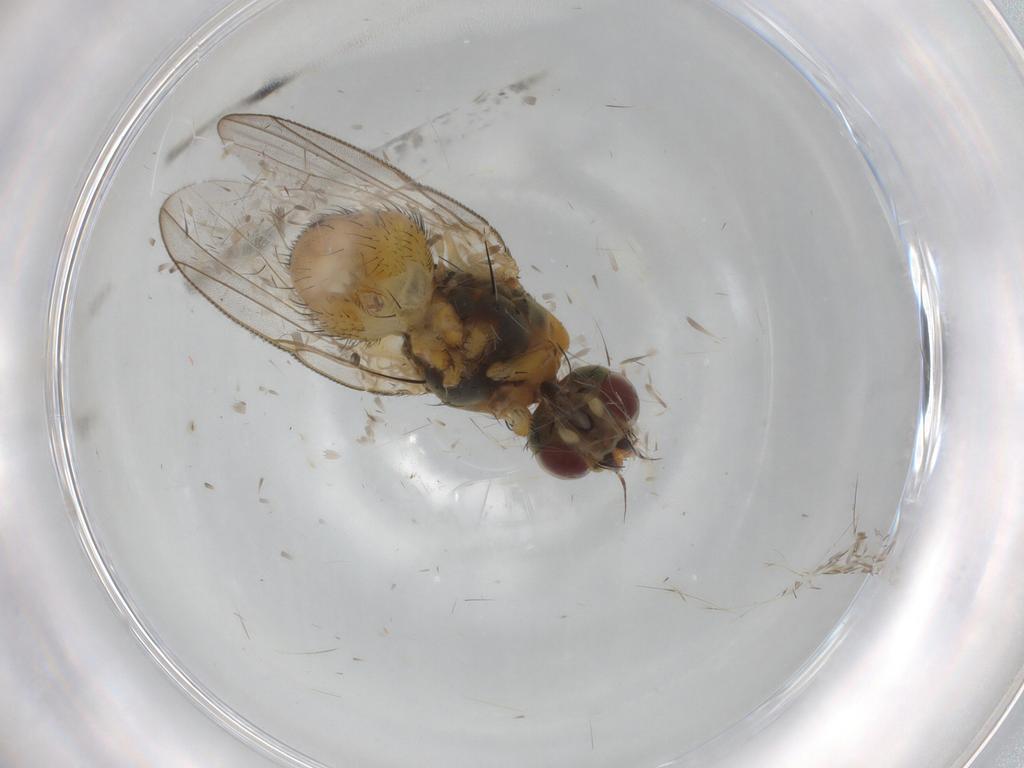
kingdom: Animalia
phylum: Arthropoda
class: Insecta
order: Diptera
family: Muscidae
